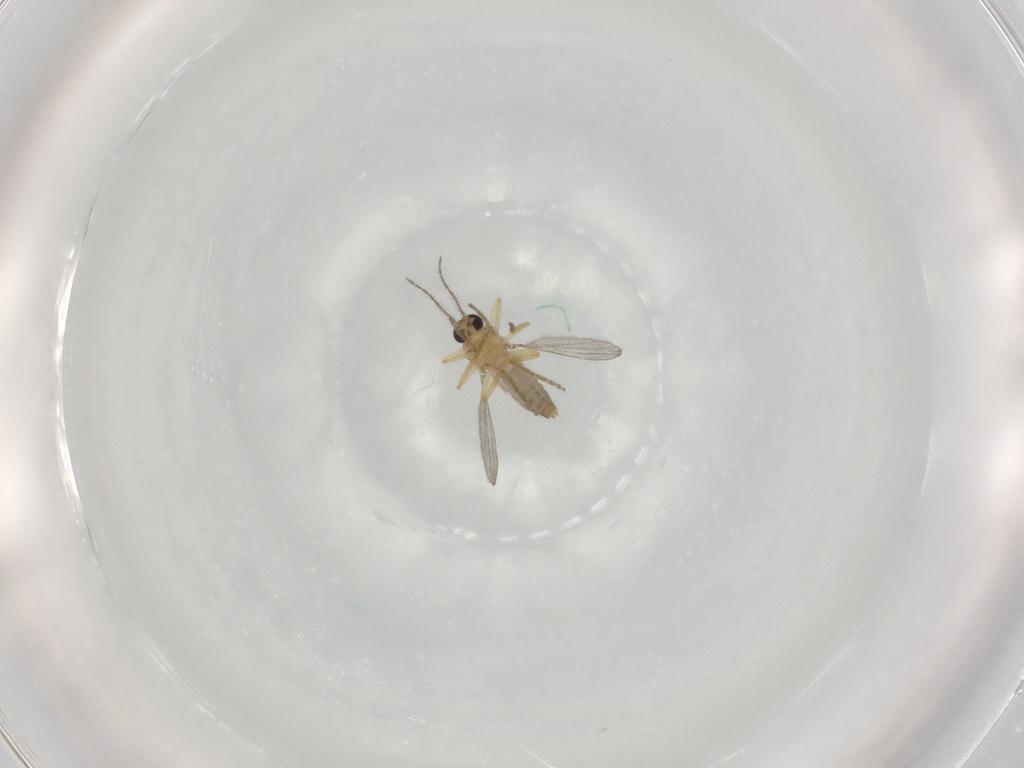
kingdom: Animalia
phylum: Arthropoda
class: Insecta
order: Diptera
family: Ceratopogonidae
